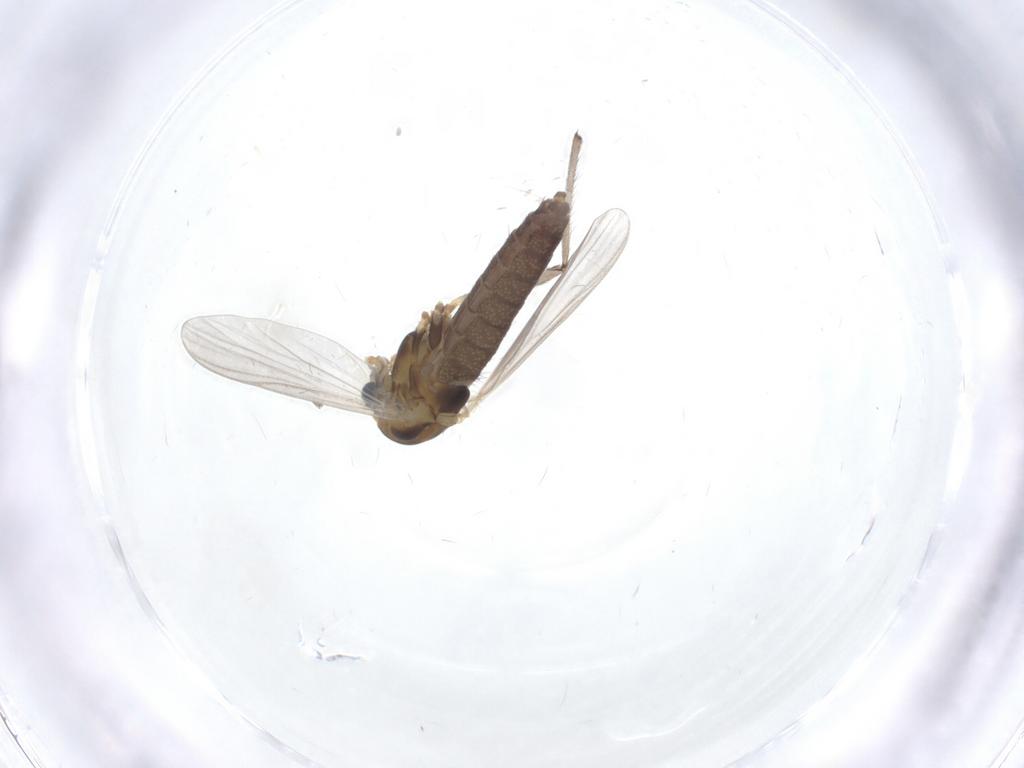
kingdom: Animalia
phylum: Arthropoda
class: Insecta
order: Diptera
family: Chironomidae
